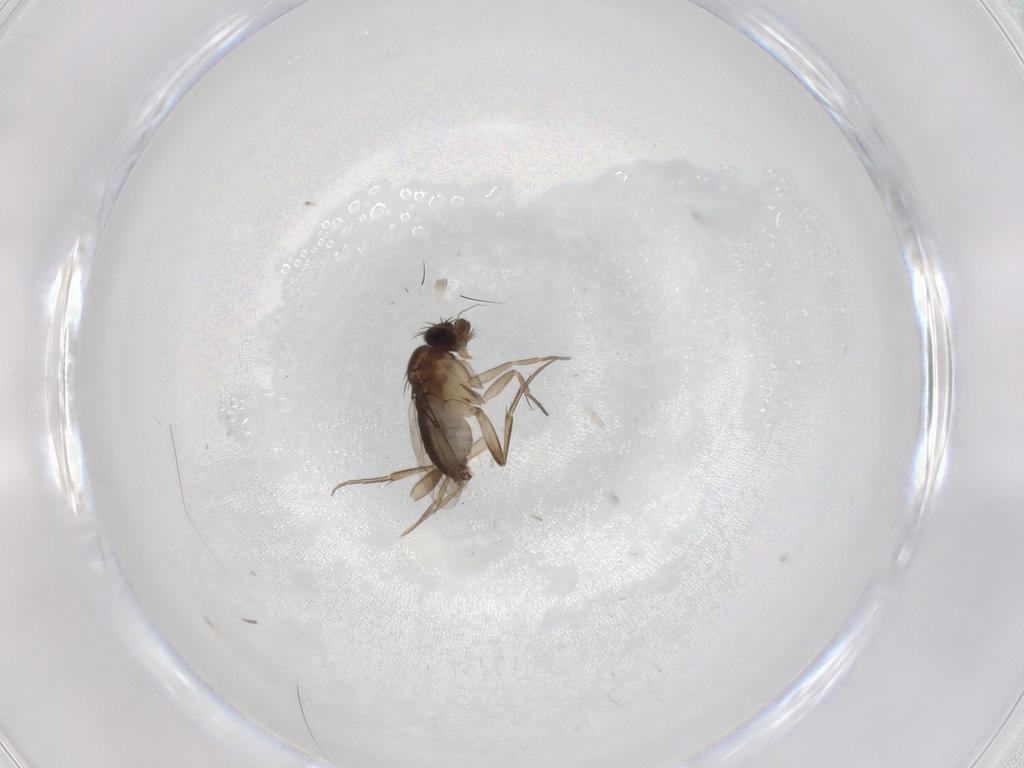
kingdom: Animalia
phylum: Arthropoda
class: Insecta
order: Diptera
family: Phoridae
